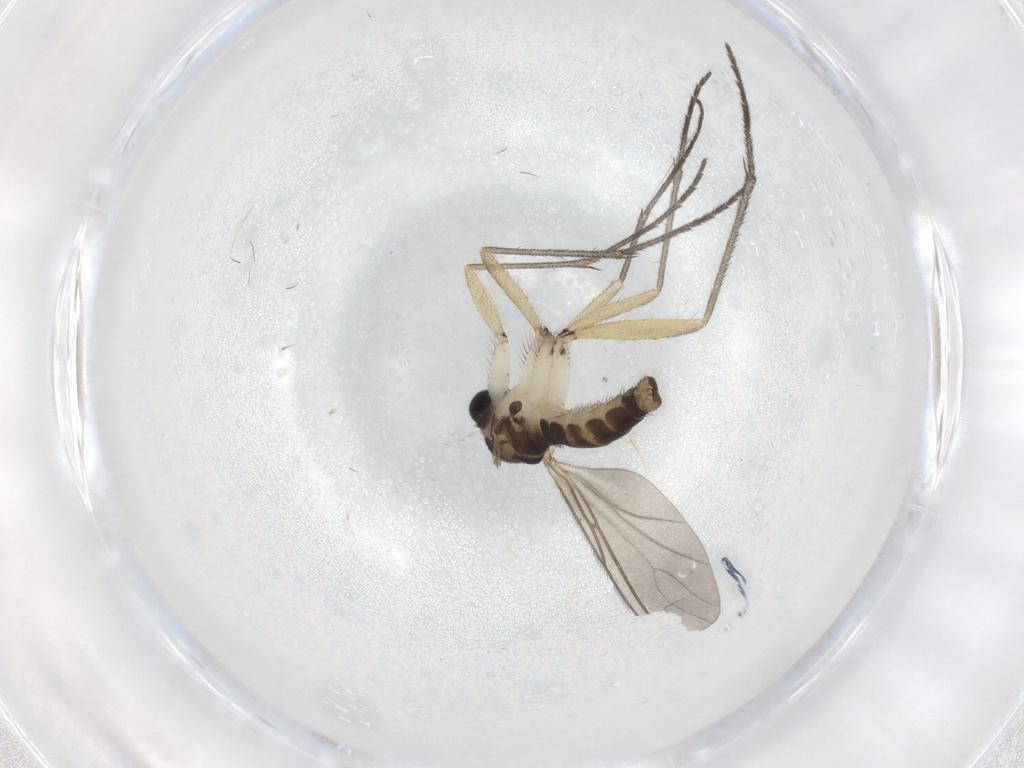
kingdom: Animalia
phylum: Arthropoda
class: Insecta
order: Diptera
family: Sciaridae
